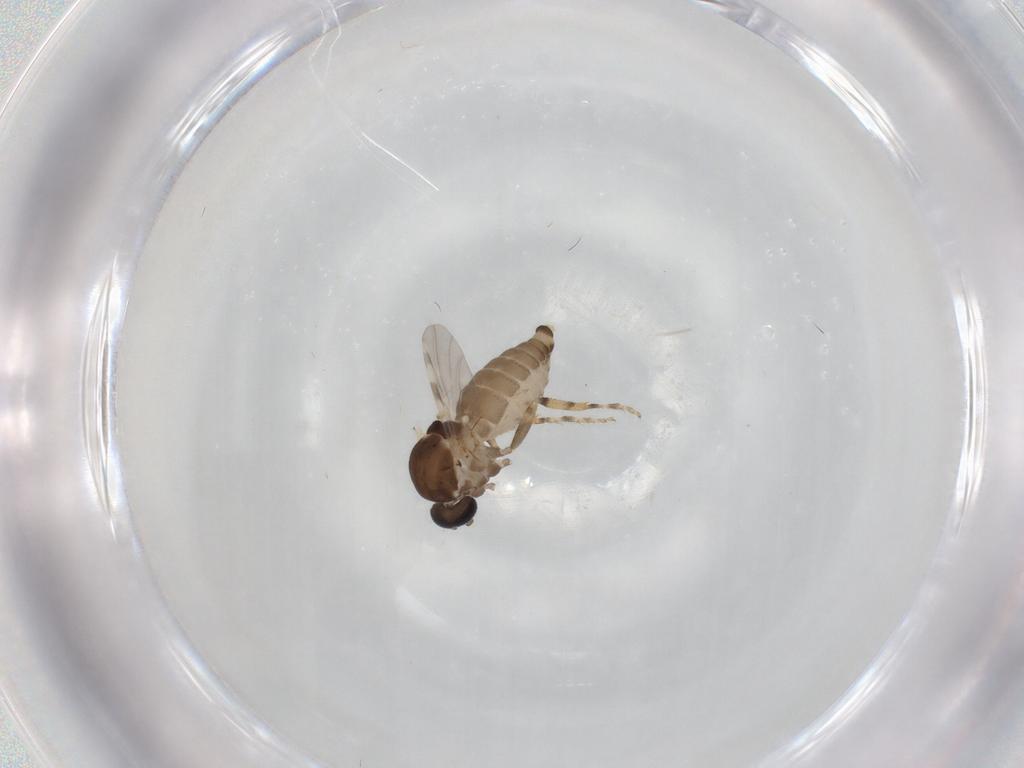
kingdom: Animalia
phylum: Arthropoda
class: Insecta
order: Diptera
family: Ceratopogonidae
